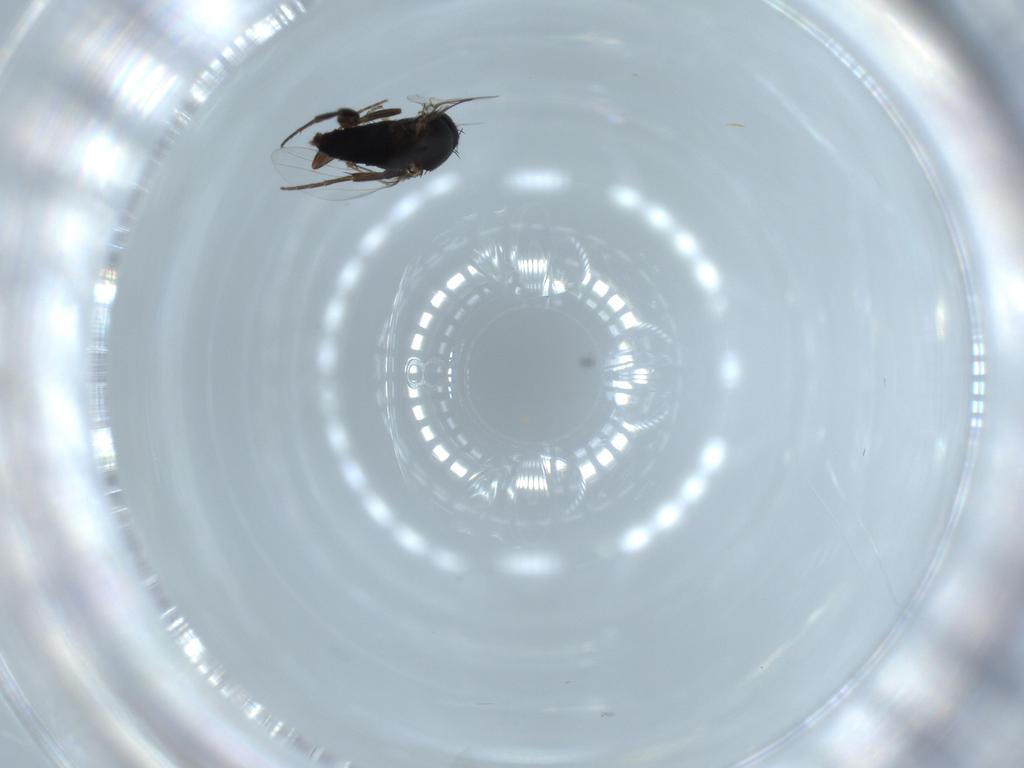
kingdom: Animalia
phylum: Arthropoda
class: Insecta
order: Diptera
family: Phoridae
